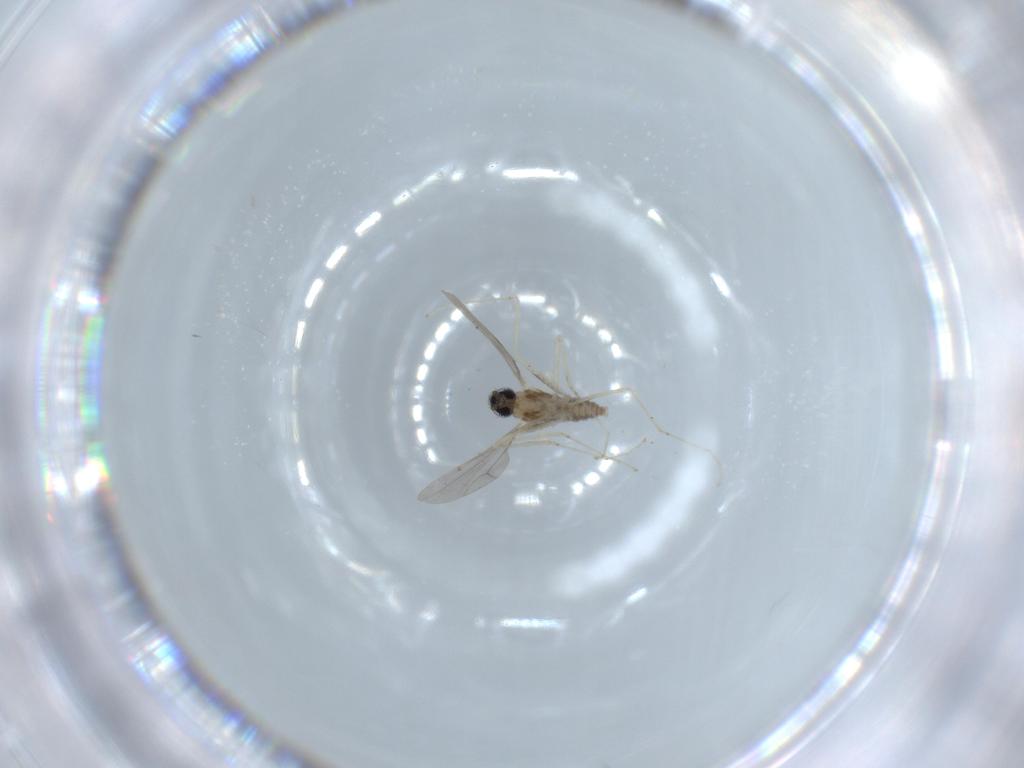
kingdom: Animalia
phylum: Arthropoda
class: Insecta
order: Diptera
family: Cecidomyiidae
